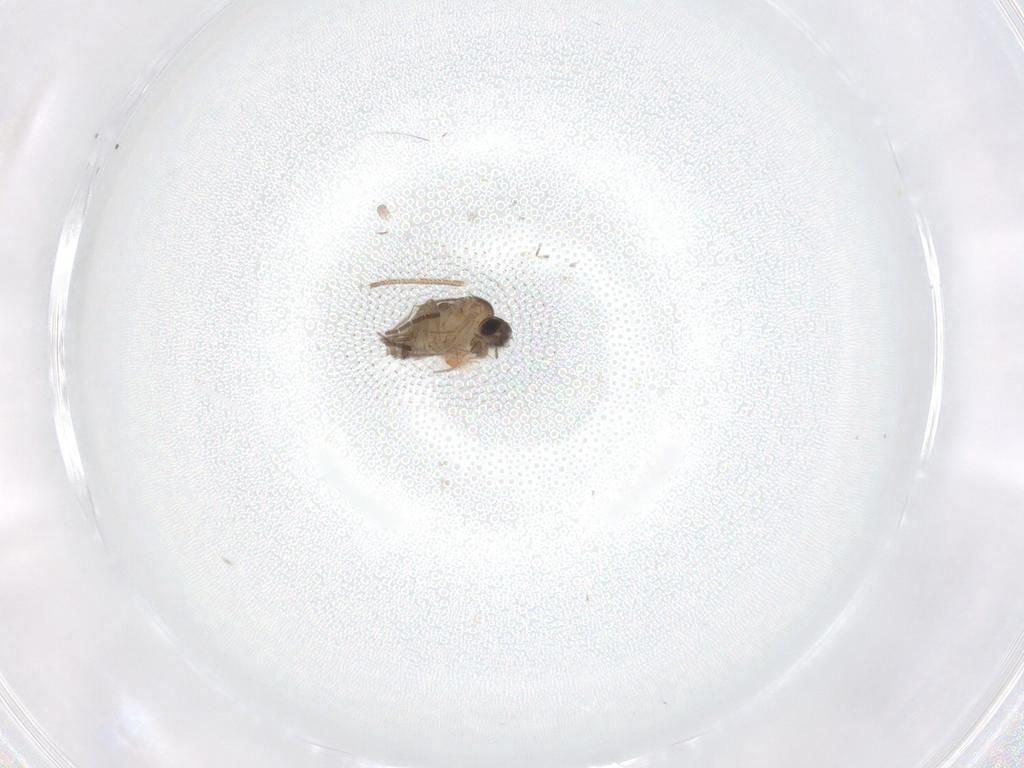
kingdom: Animalia
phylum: Arthropoda
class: Insecta
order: Diptera
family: Phoridae
